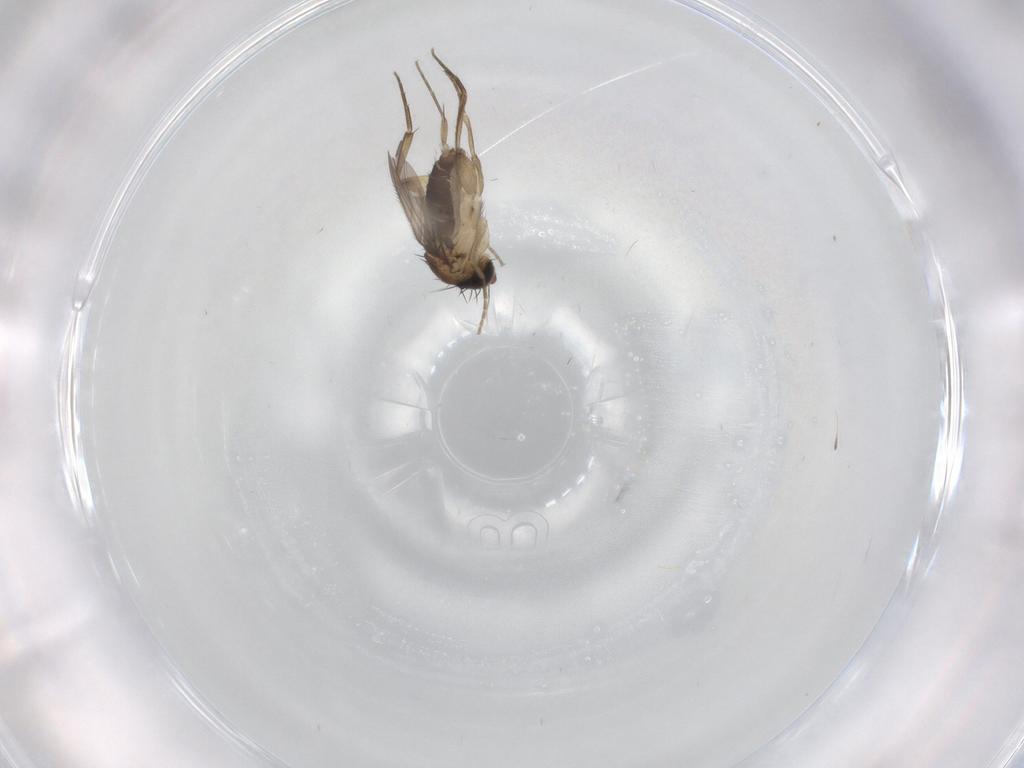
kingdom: Animalia
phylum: Arthropoda
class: Insecta
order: Diptera
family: Phoridae
